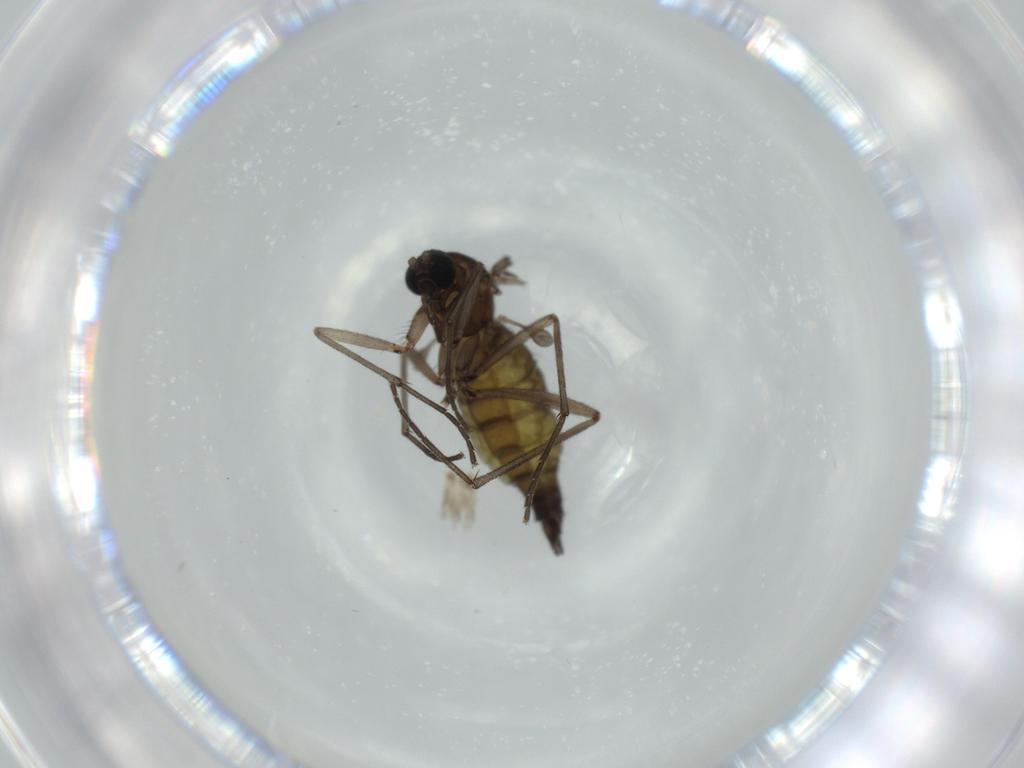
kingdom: Animalia
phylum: Arthropoda
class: Insecta
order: Diptera
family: Sciaridae
